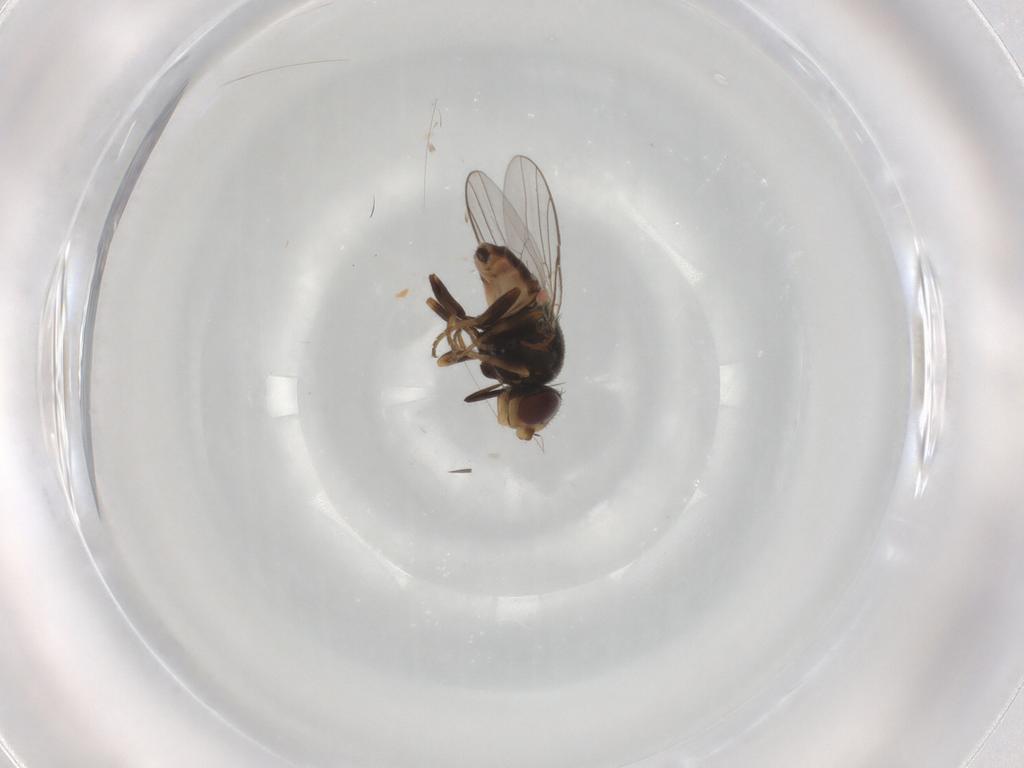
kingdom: Animalia
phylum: Arthropoda
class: Insecta
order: Diptera
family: Chloropidae
